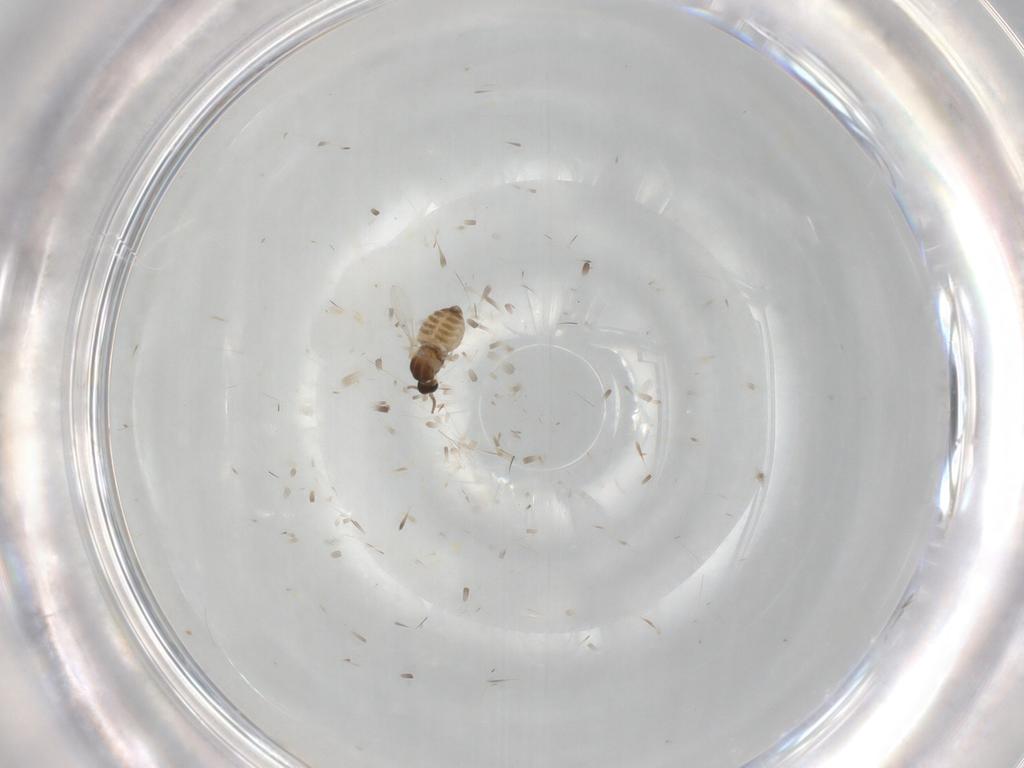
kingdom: Animalia
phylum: Arthropoda
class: Insecta
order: Diptera
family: Cecidomyiidae
